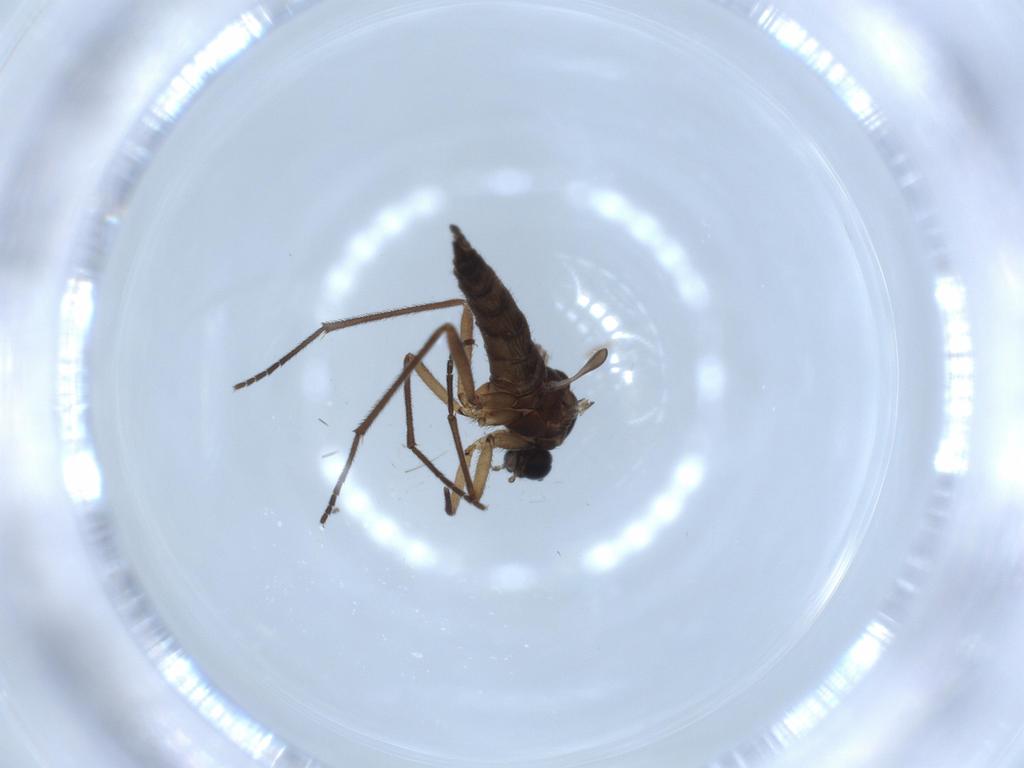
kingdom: Animalia
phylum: Arthropoda
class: Insecta
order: Diptera
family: Sciaridae
